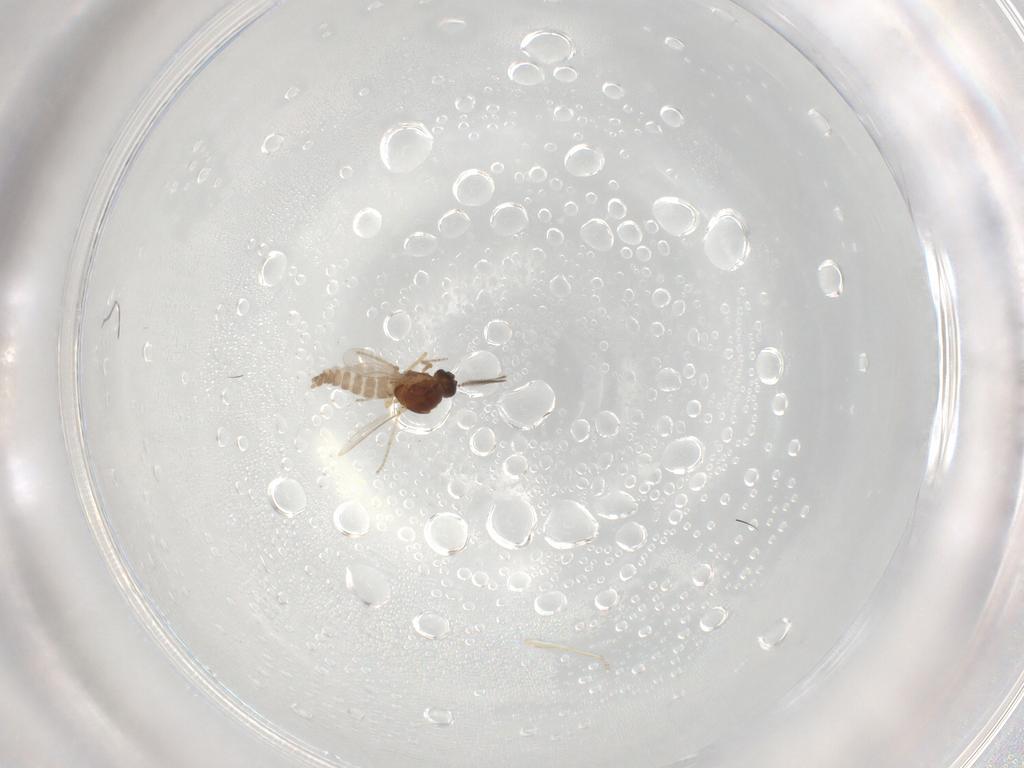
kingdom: Animalia
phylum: Arthropoda
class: Insecta
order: Diptera
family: Ceratopogonidae
